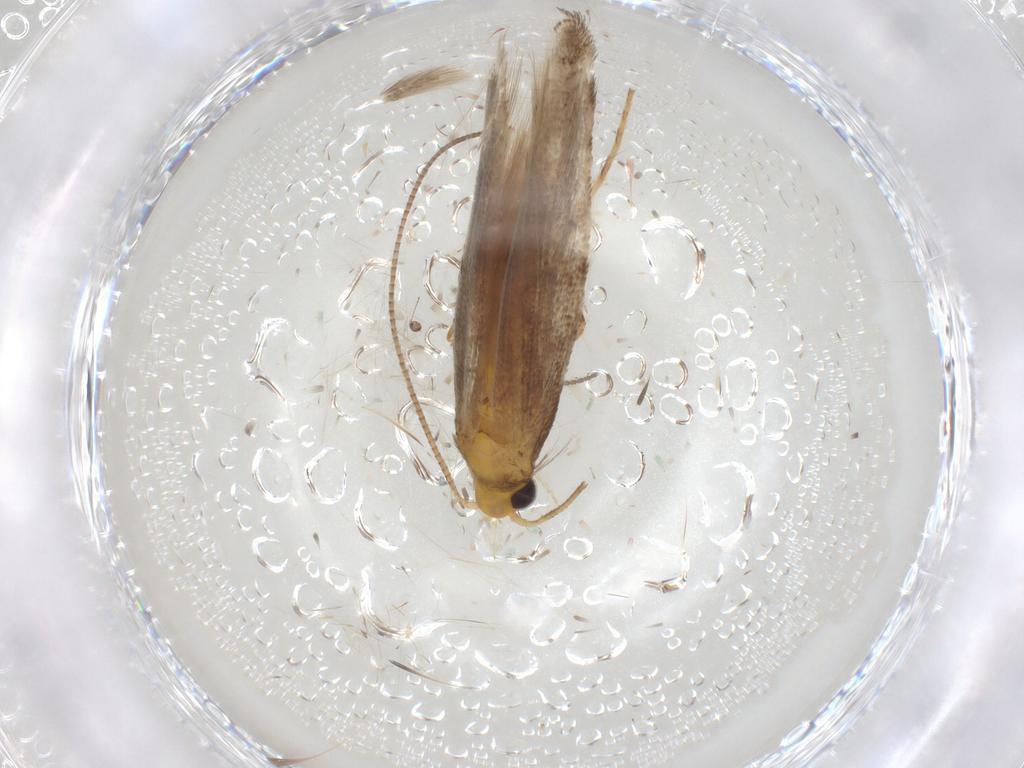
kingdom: Animalia
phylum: Arthropoda
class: Insecta
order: Lepidoptera
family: Gracillariidae
